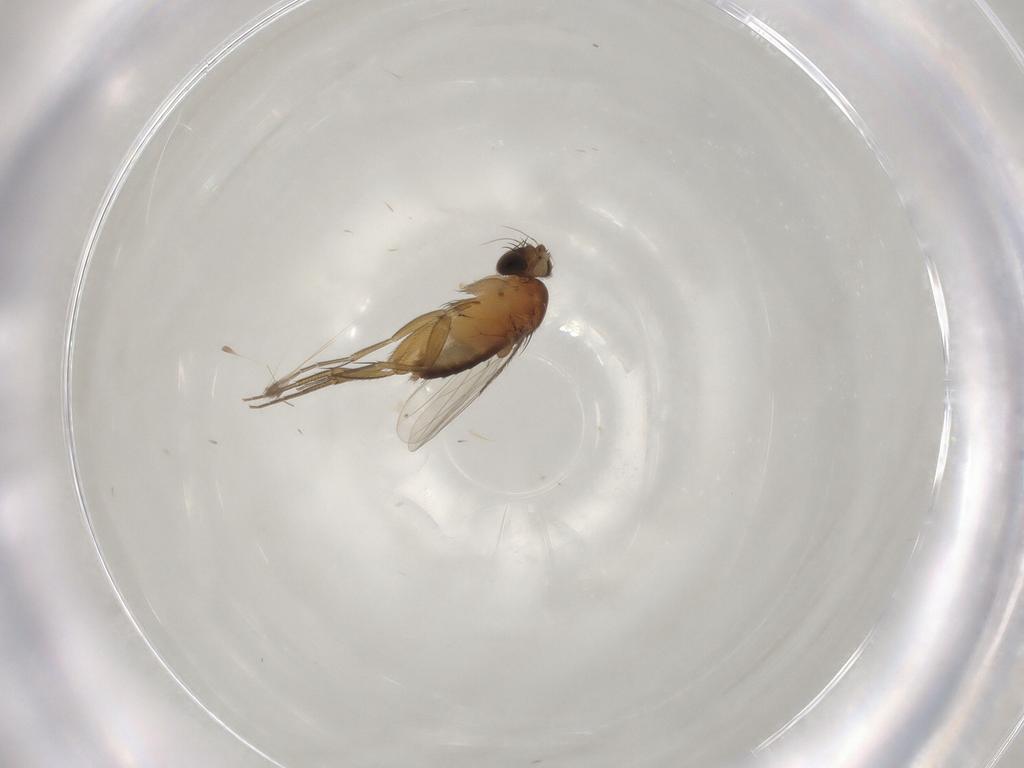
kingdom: Animalia
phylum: Arthropoda
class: Insecta
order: Diptera
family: Phoridae
